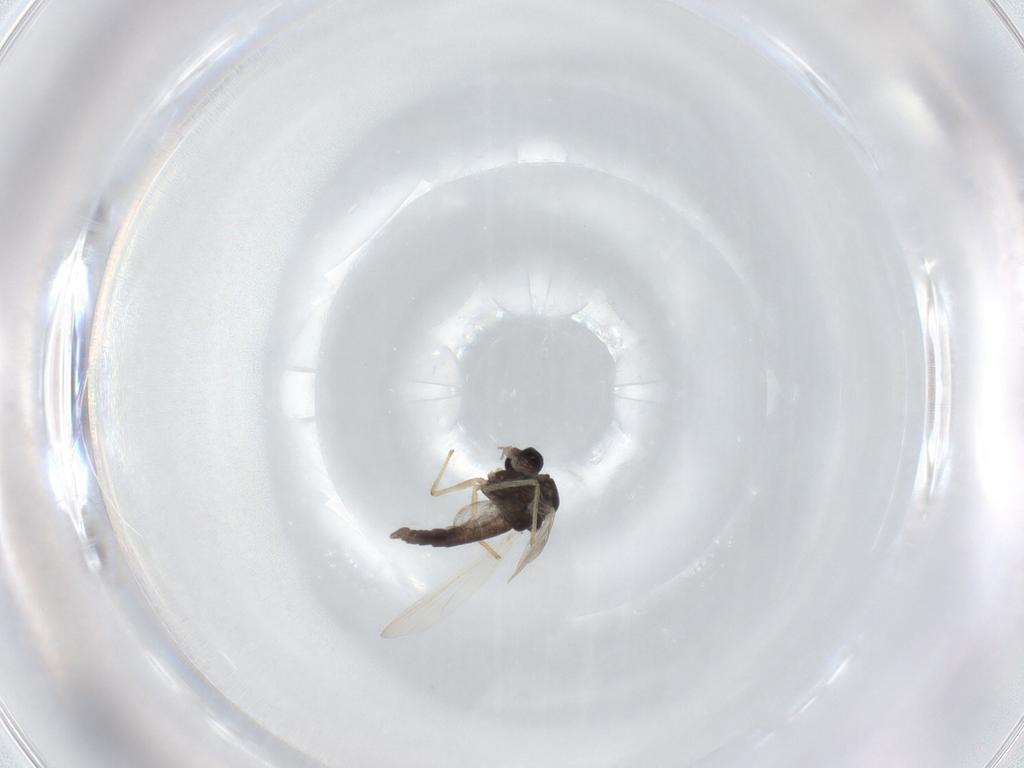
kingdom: Animalia
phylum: Arthropoda
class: Insecta
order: Diptera
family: Chironomidae
